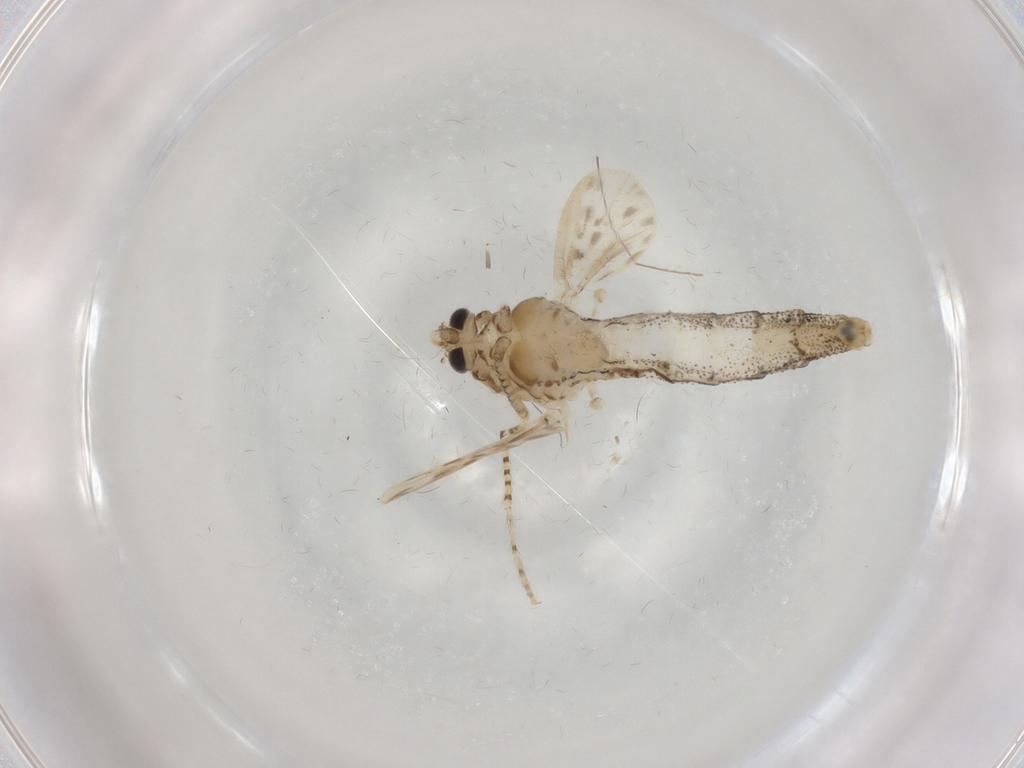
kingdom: Animalia
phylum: Arthropoda
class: Insecta
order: Diptera
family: Chaoboridae
